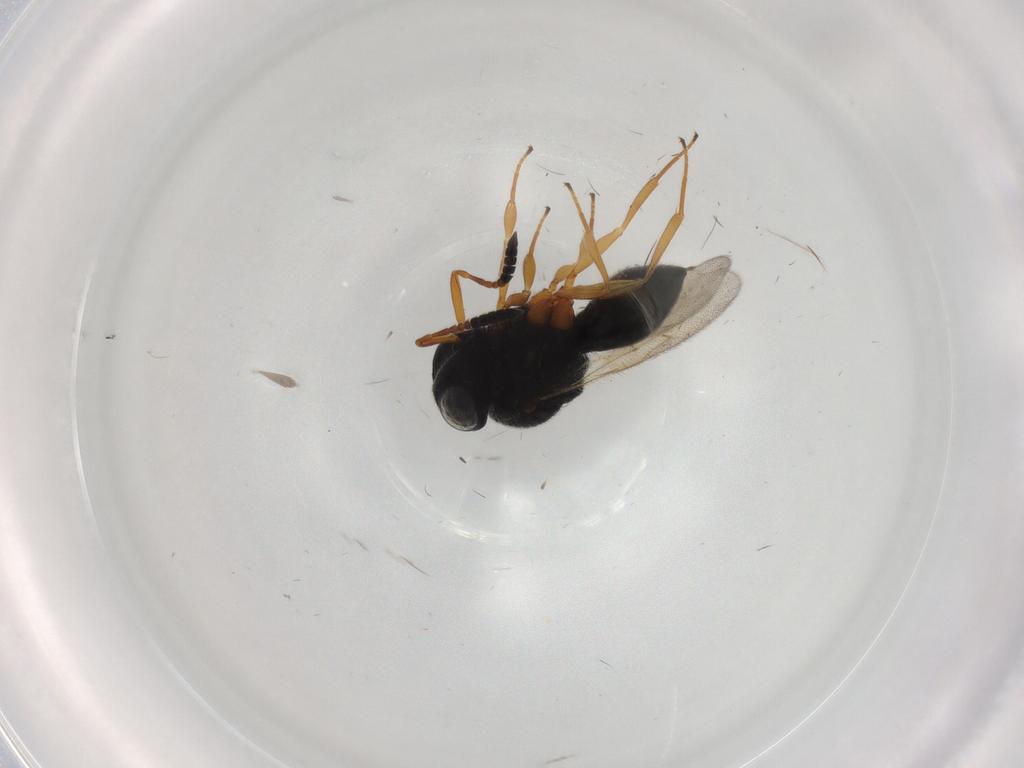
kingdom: Animalia
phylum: Arthropoda
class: Insecta
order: Hymenoptera
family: Scelionidae
